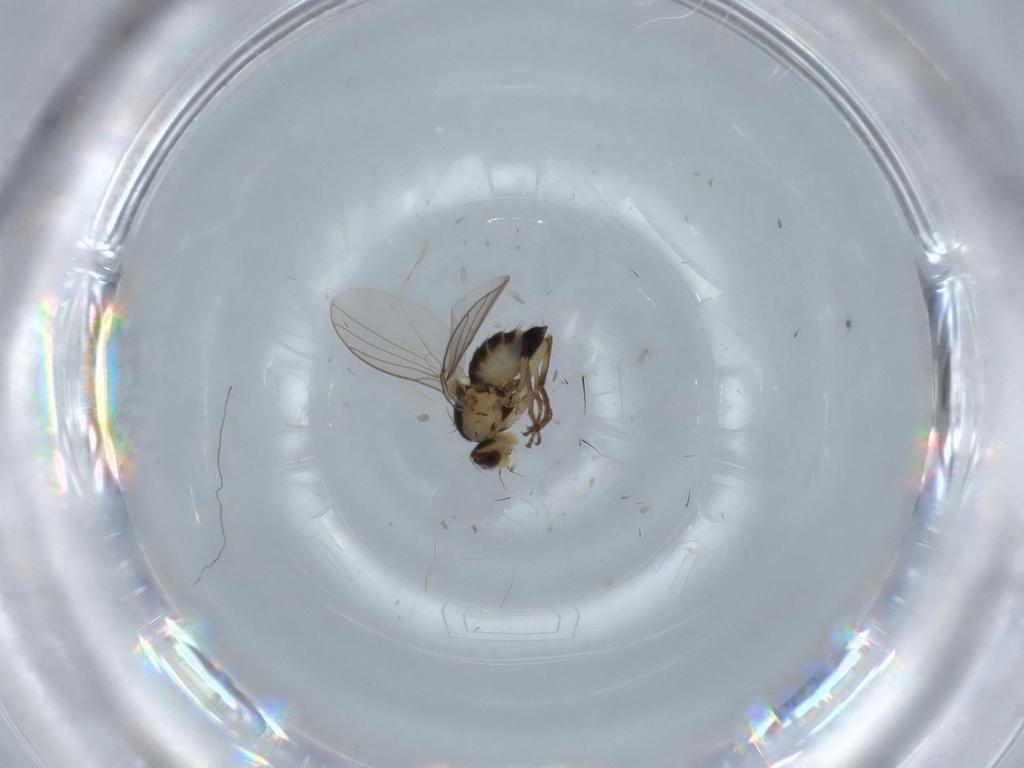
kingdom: Animalia
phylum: Arthropoda
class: Insecta
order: Diptera
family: Agromyzidae
